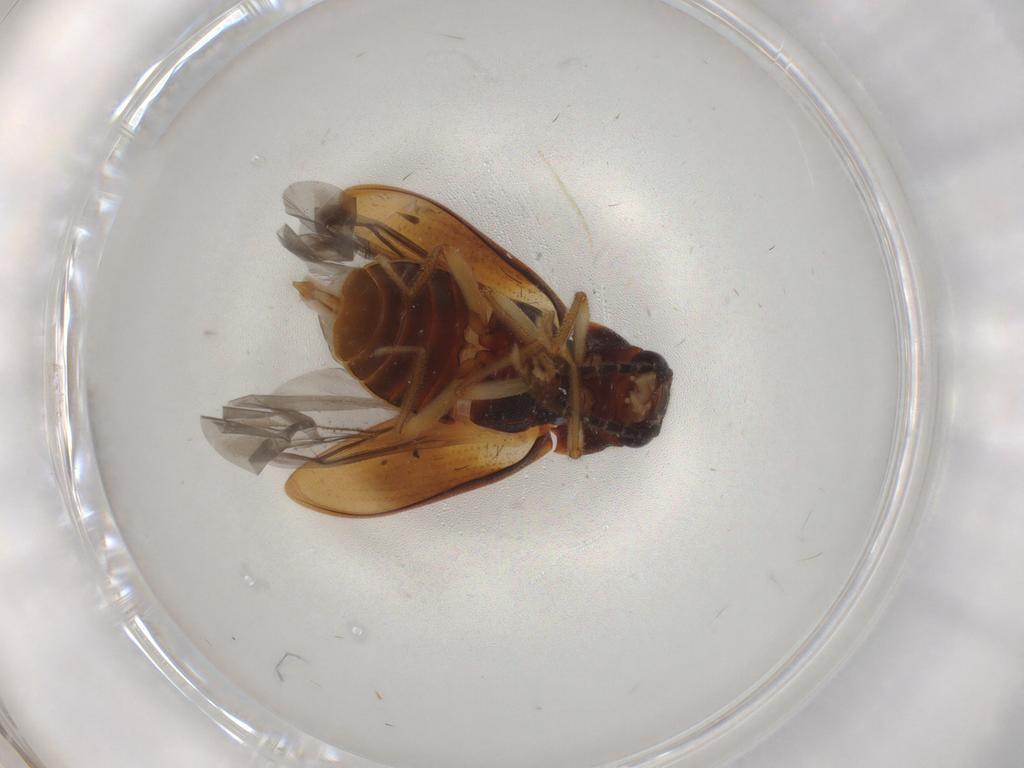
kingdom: Animalia
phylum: Arthropoda
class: Insecta
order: Coleoptera
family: Ptilodactylidae
